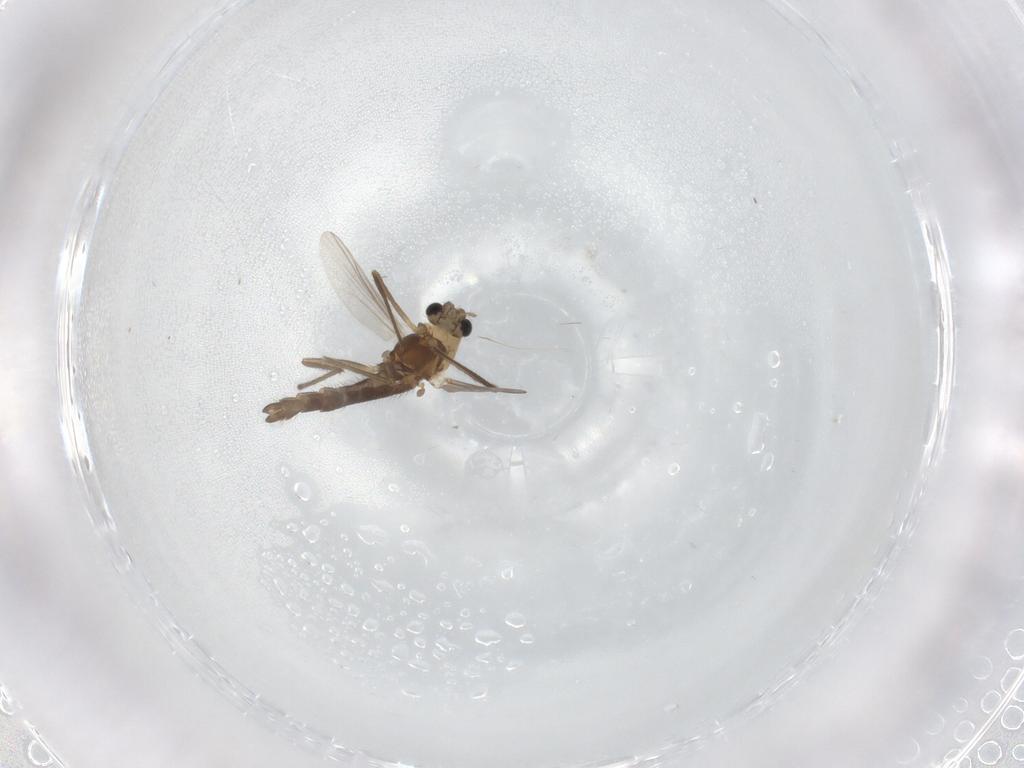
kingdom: Animalia
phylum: Arthropoda
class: Insecta
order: Diptera
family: Chironomidae
